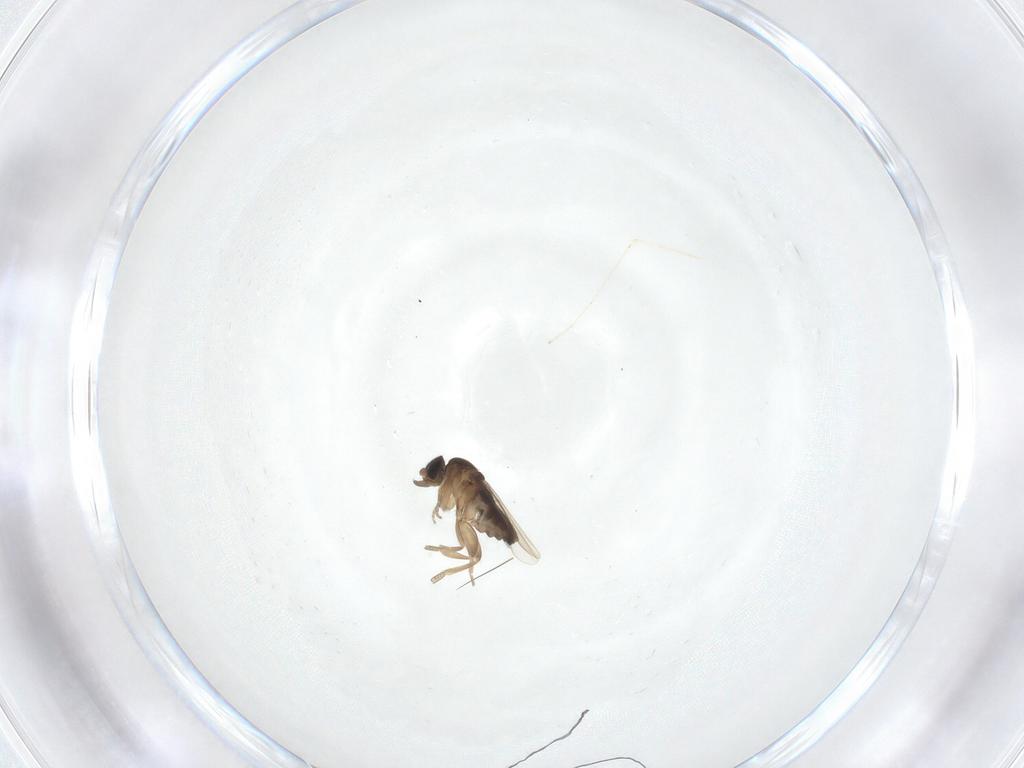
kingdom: Animalia
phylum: Arthropoda
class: Insecta
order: Diptera
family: Phoridae
